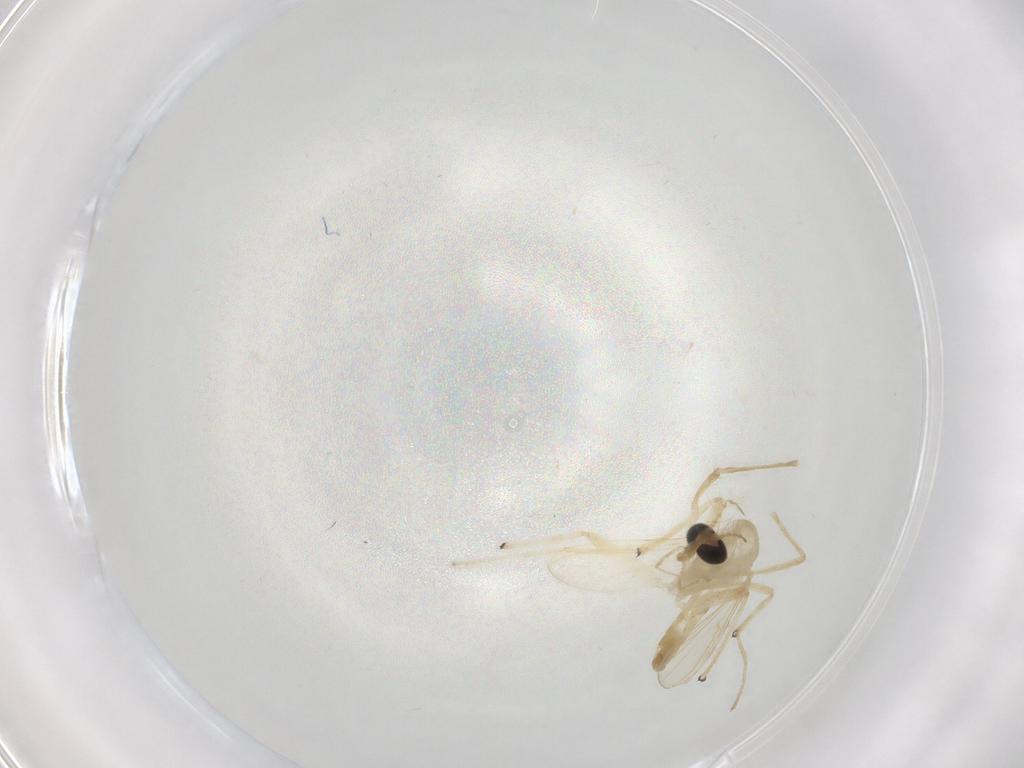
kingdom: Animalia
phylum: Arthropoda
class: Insecta
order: Diptera
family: Chironomidae
